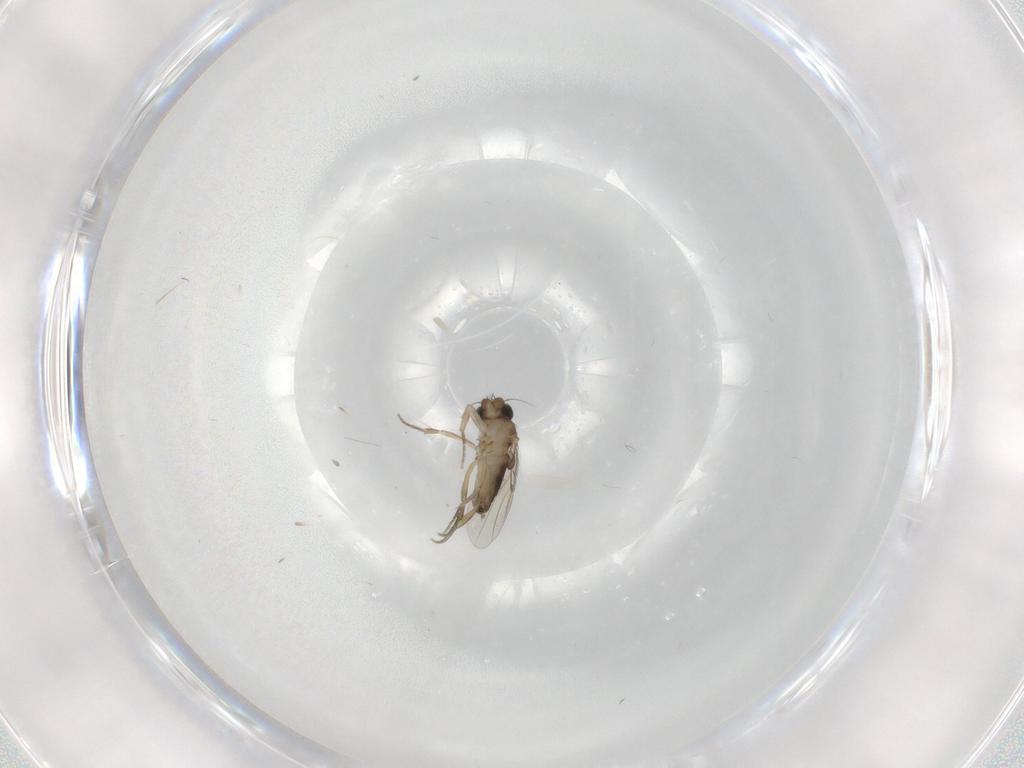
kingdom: Animalia
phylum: Arthropoda
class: Insecta
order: Diptera
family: Phoridae
